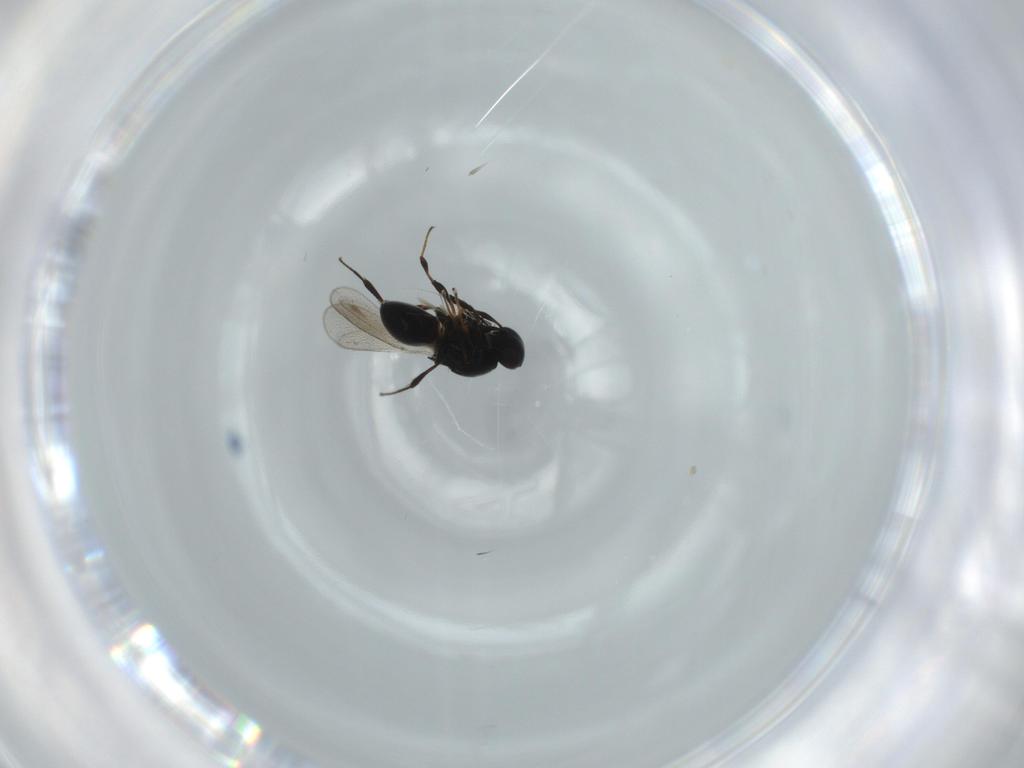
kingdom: Animalia
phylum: Arthropoda
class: Insecta
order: Hymenoptera
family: Platygastridae
